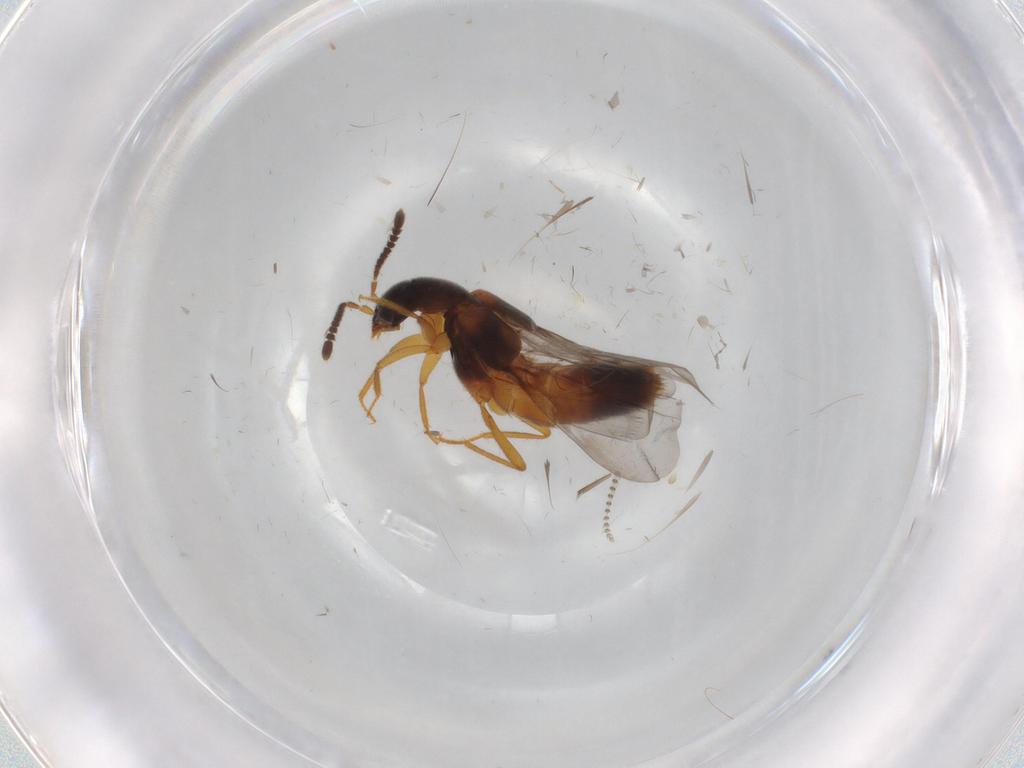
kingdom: Animalia
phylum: Arthropoda
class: Insecta
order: Coleoptera
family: Staphylinidae
